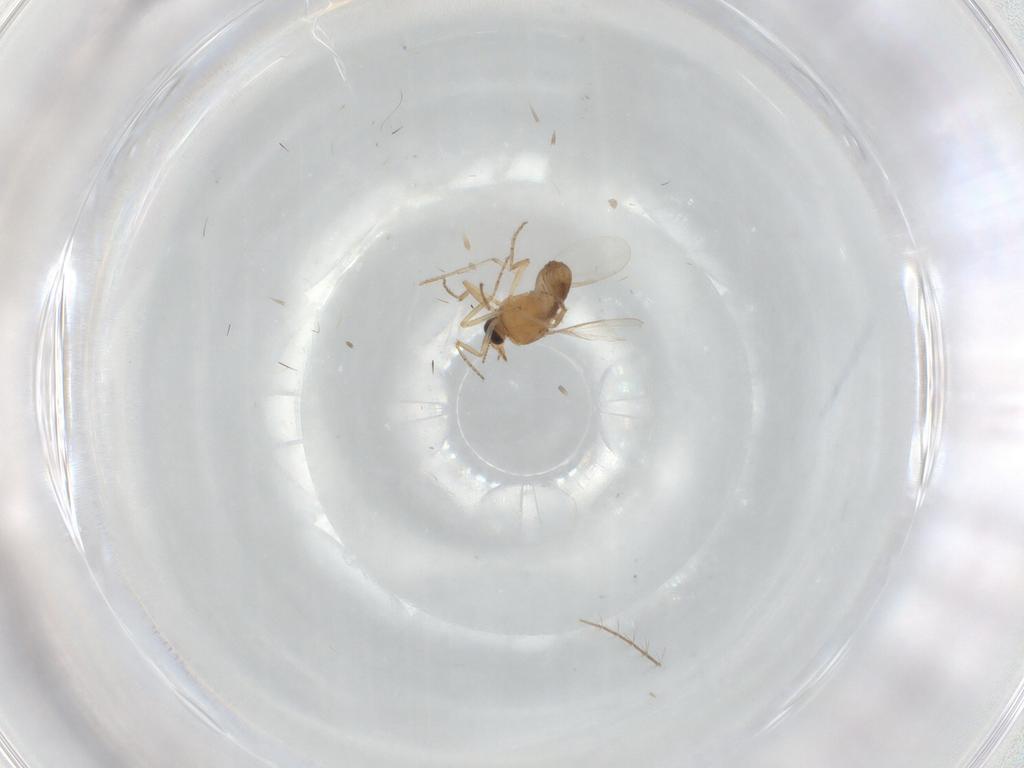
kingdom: Animalia
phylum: Arthropoda
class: Insecta
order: Diptera
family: Ceratopogonidae
